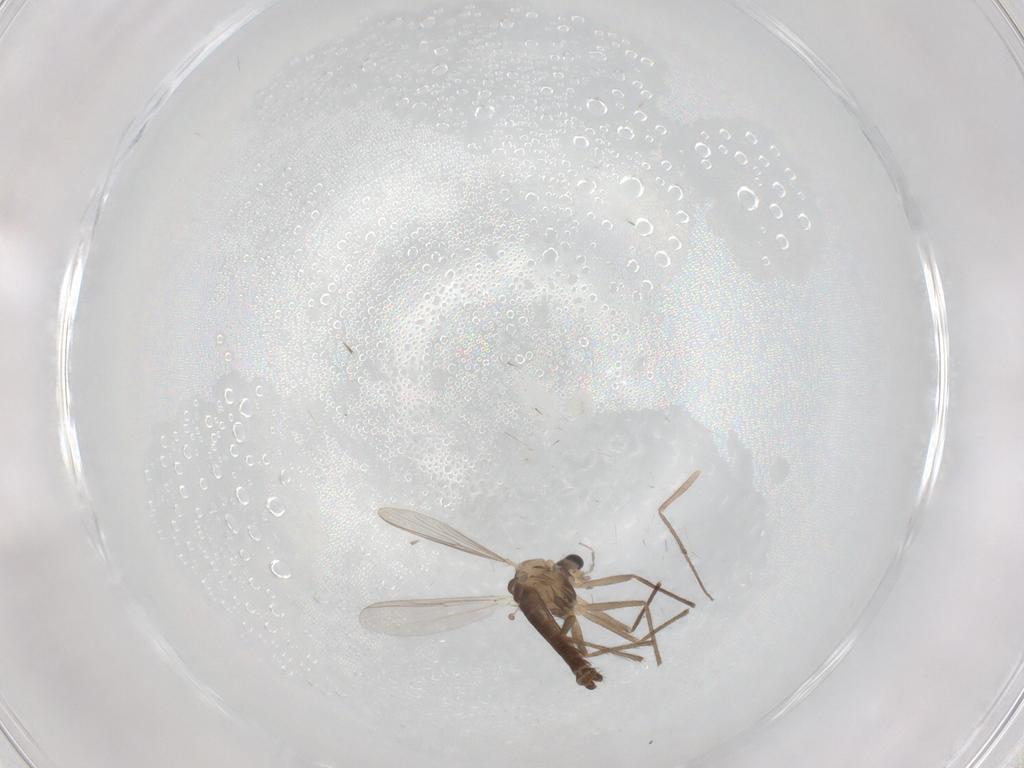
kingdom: Animalia
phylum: Arthropoda
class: Insecta
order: Diptera
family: Chironomidae
